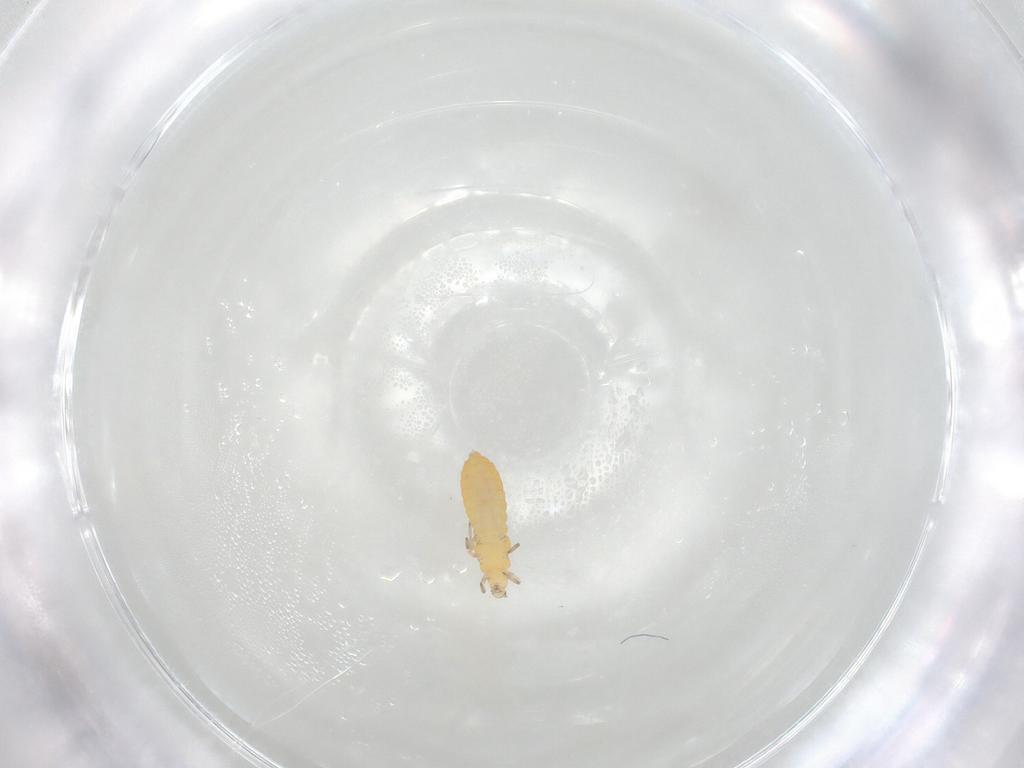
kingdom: Animalia
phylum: Arthropoda
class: Insecta
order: Thysanoptera
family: Aeolothripidae
